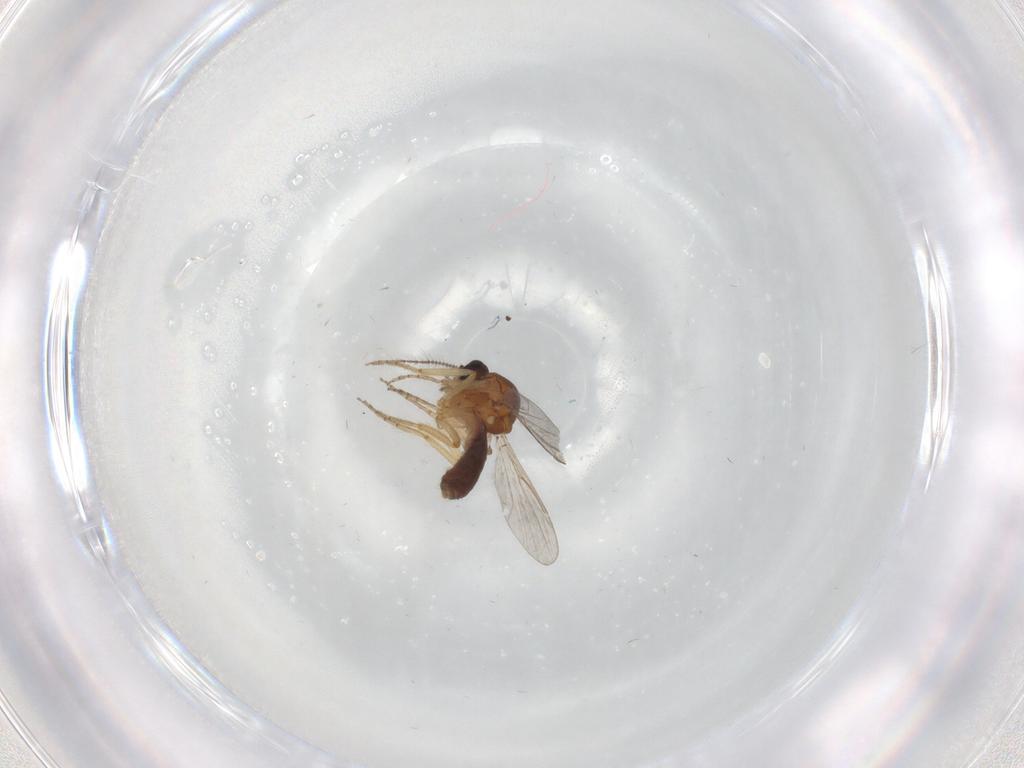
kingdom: Animalia
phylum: Arthropoda
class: Insecta
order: Diptera
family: Ceratopogonidae
